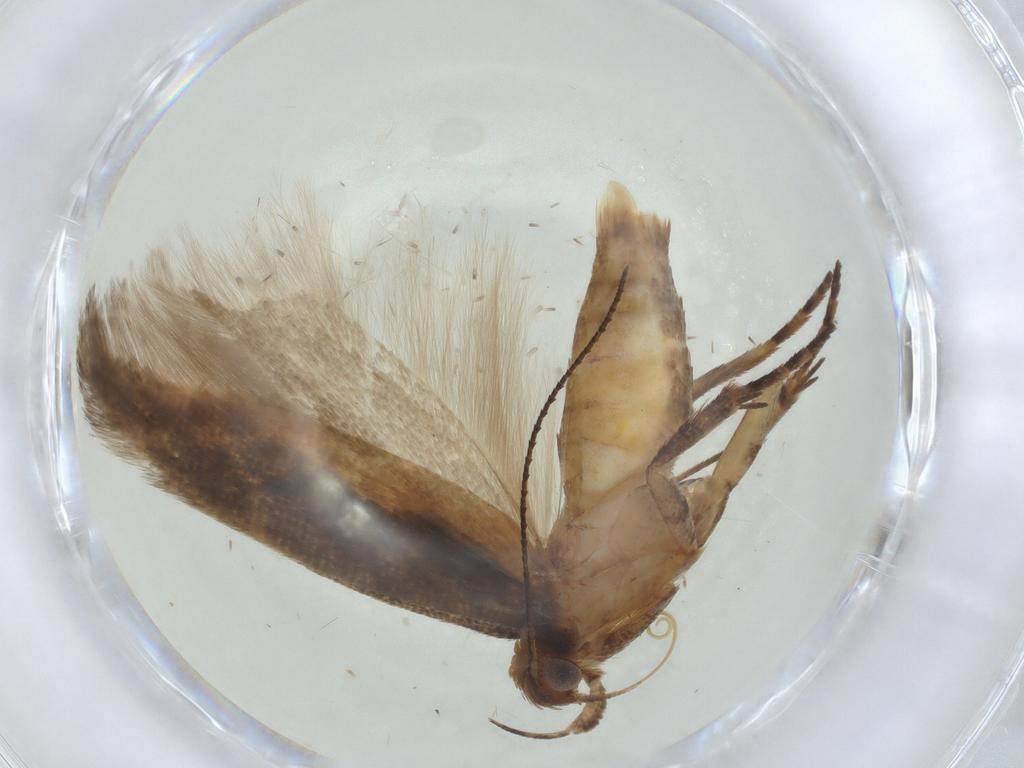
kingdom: Animalia
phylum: Arthropoda
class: Insecta
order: Lepidoptera
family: Gelechiidae
